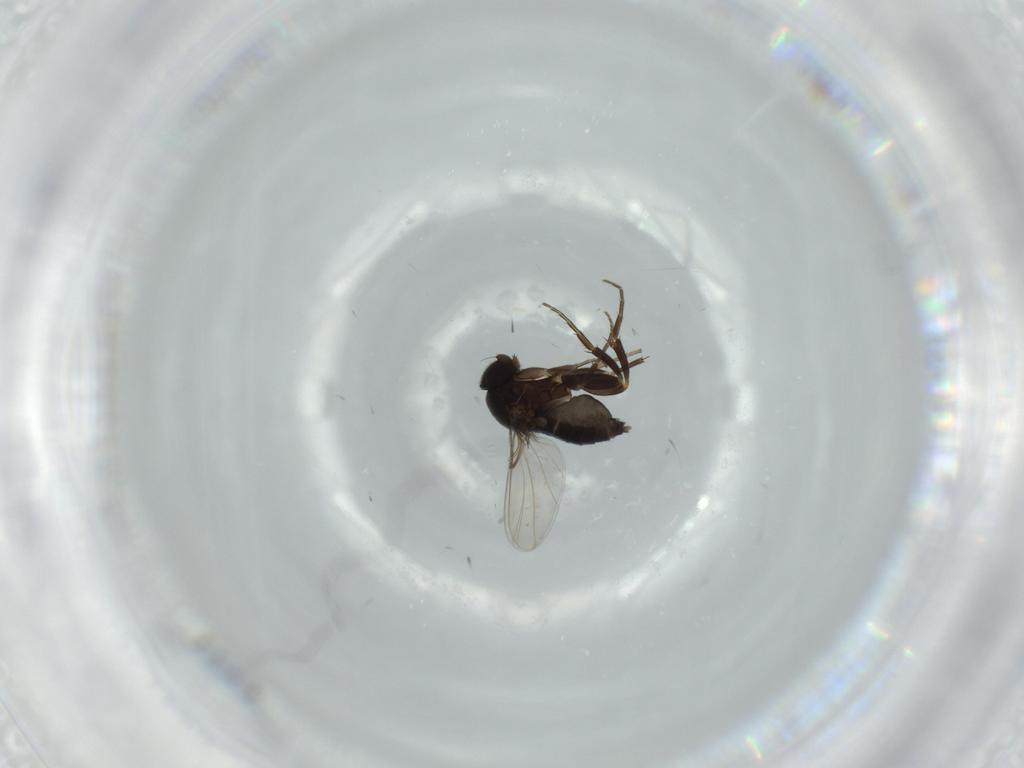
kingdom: Animalia
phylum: Arthropoda
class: Insecta
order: Diptera
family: Phoridae
